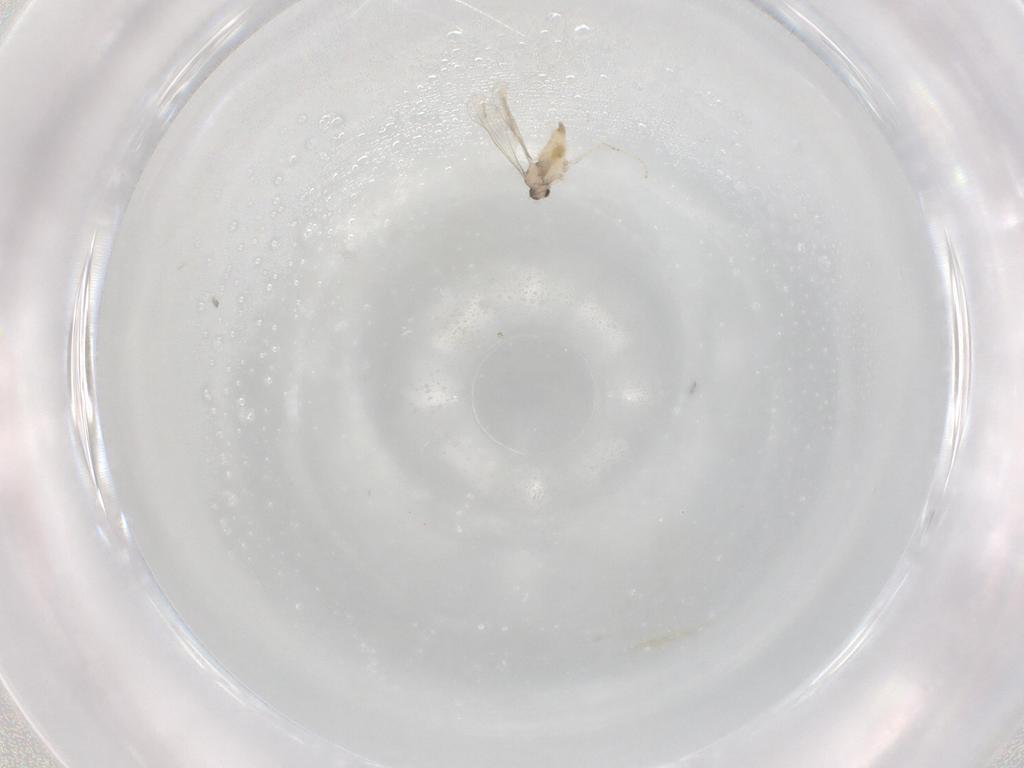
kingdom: Animalia
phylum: Arthropoda
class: Insecta
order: Diptera
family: Cecidomyiidae
